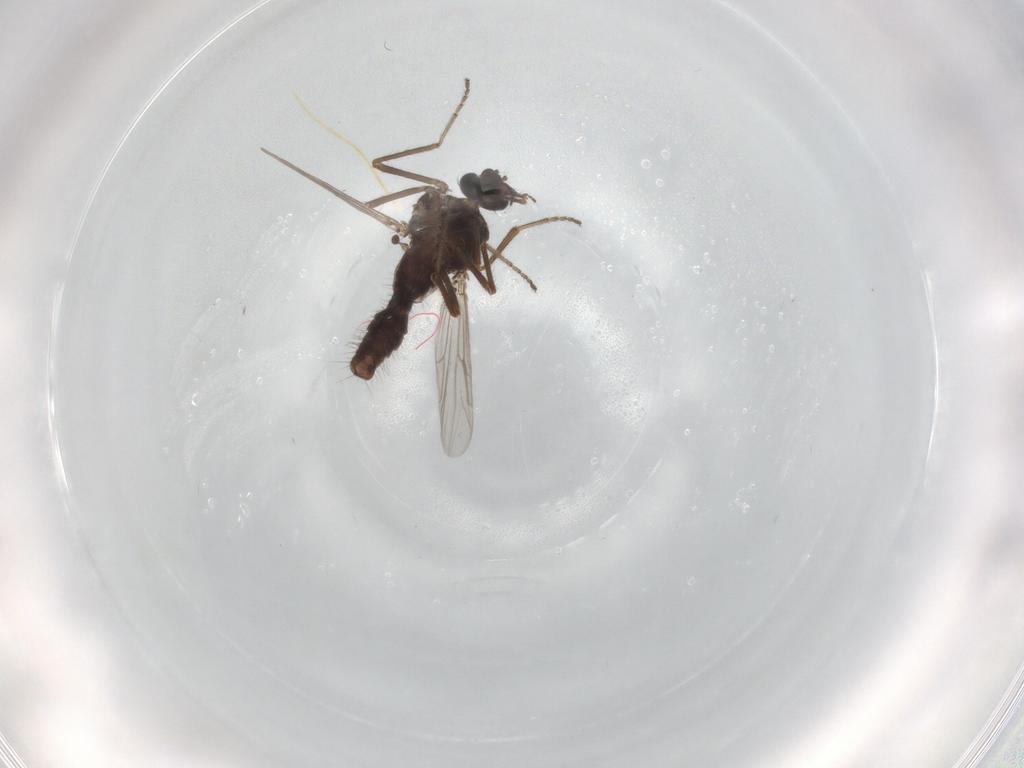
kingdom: Animalia
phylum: Arthropoda
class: Insecta
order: Diptera
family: Ceratopogonidae
